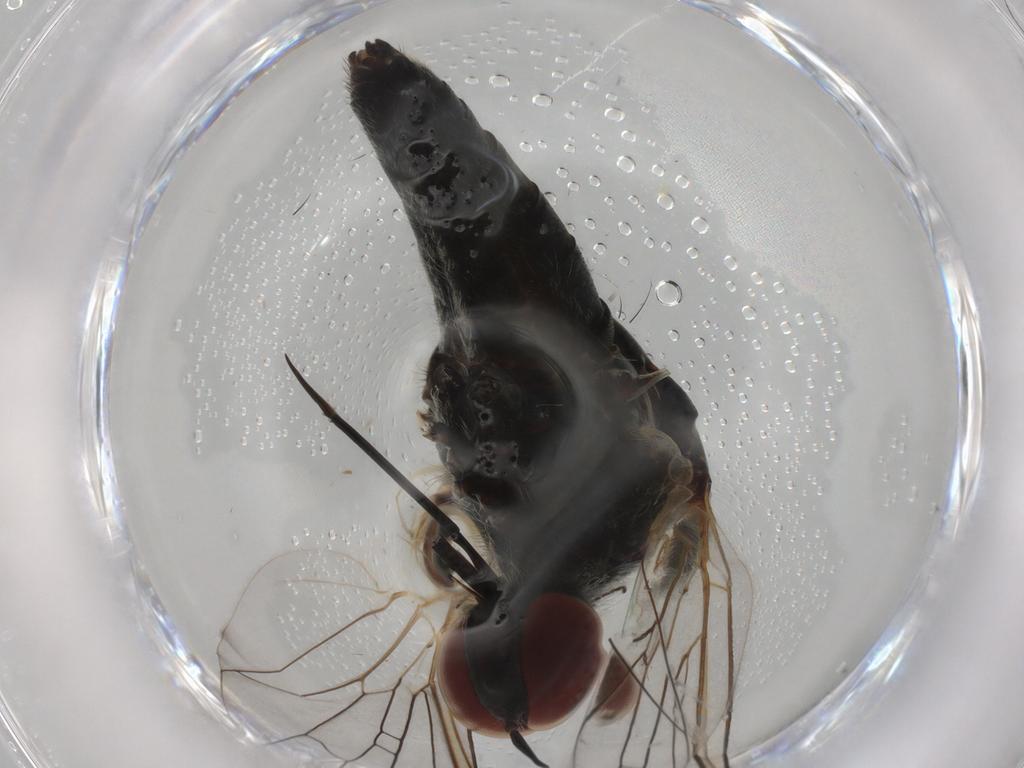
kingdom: Animalia
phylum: Arthropoda
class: Insecta
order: Diptera
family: Bombyliidae
